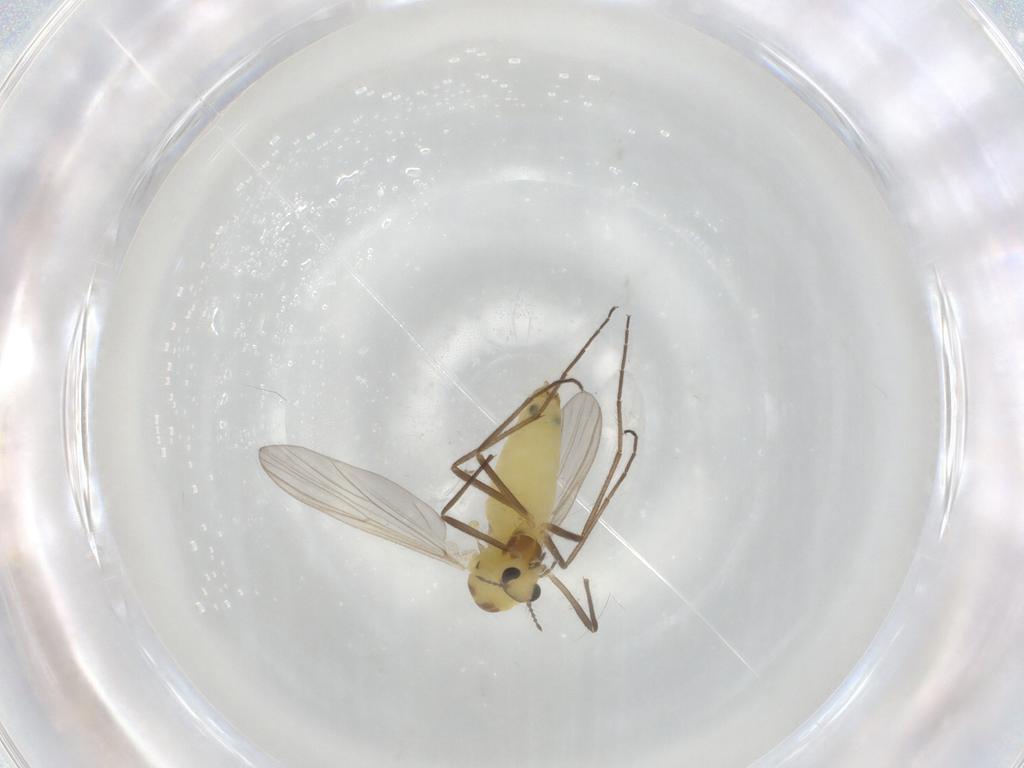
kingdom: Animalia
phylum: Arthropoda
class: Insecta
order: Diptera
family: Chironomidae
